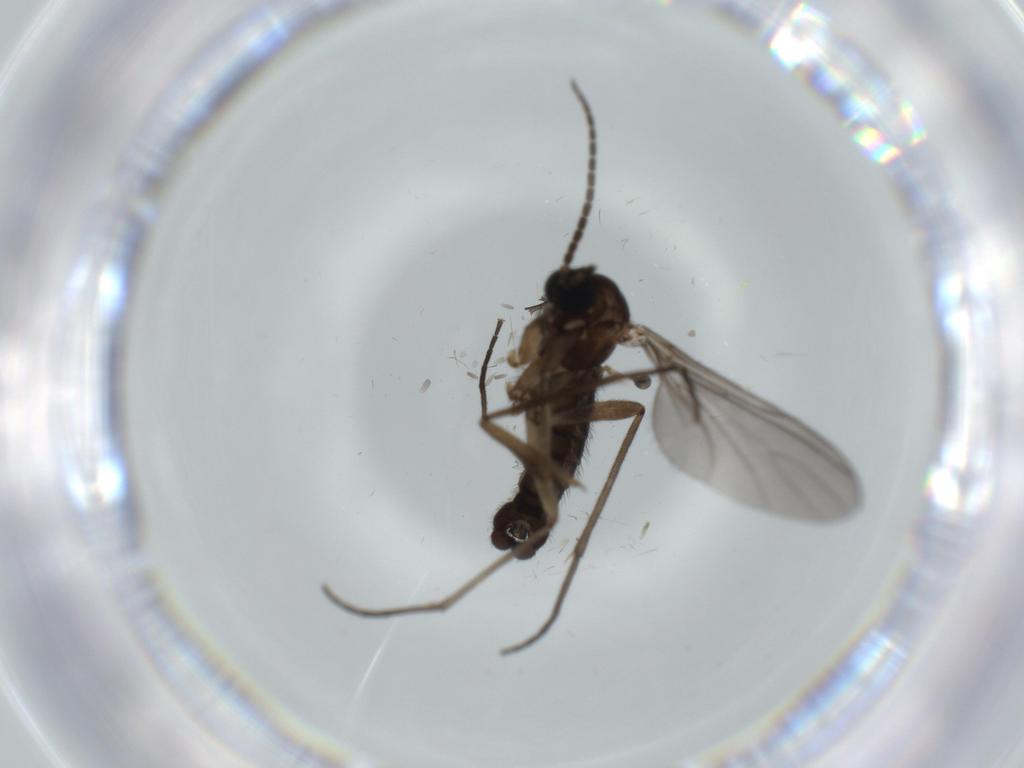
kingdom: Animalia
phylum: Arthropoda
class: Insecta
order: Diptera
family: Sciaridae
